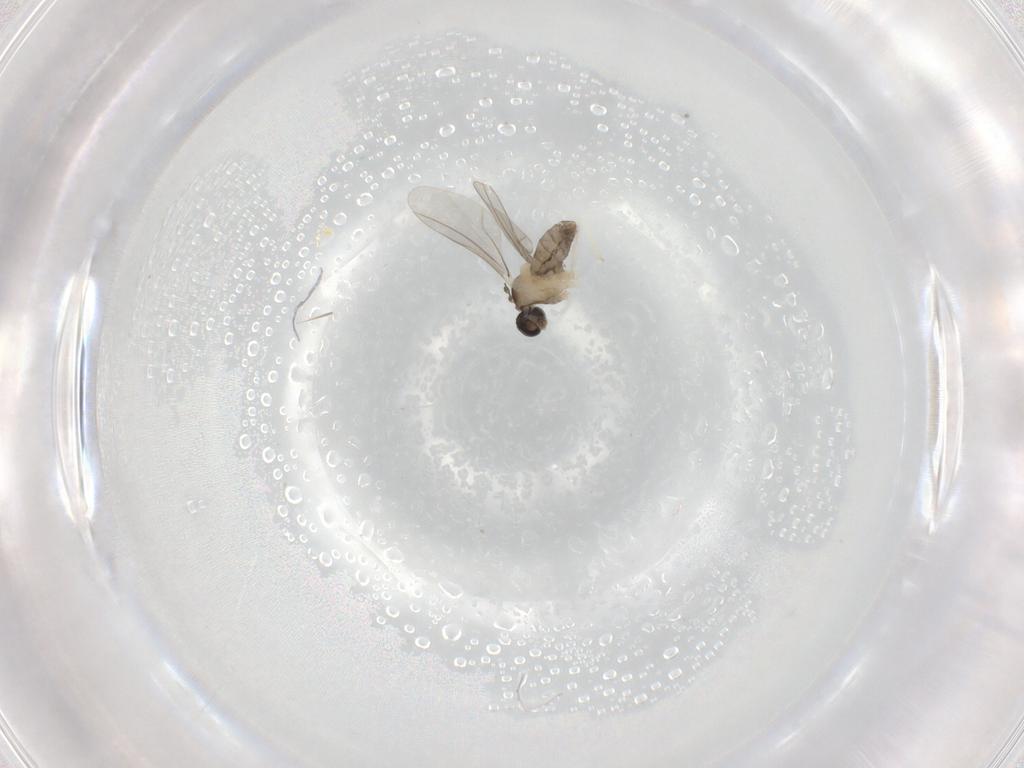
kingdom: Animalia
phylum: Arthropoda
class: Insecta
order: Diptera
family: Cecidomyiidae
